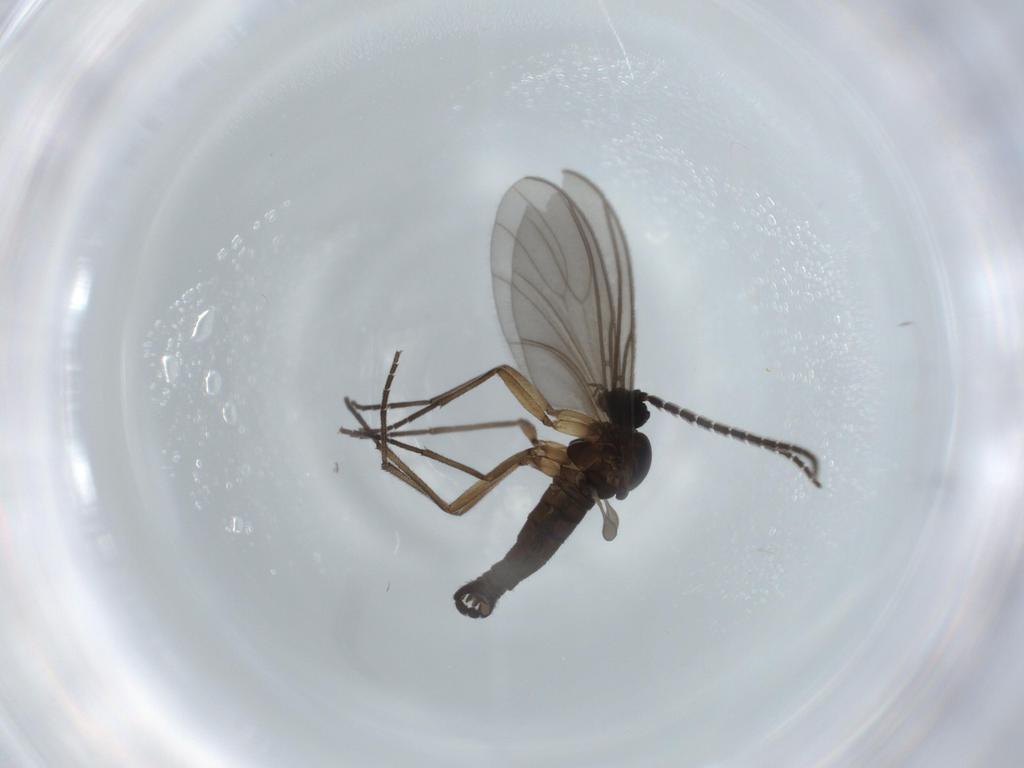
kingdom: Animalia
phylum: Arthropoda
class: Insecta
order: Diptera
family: Sciaridae
